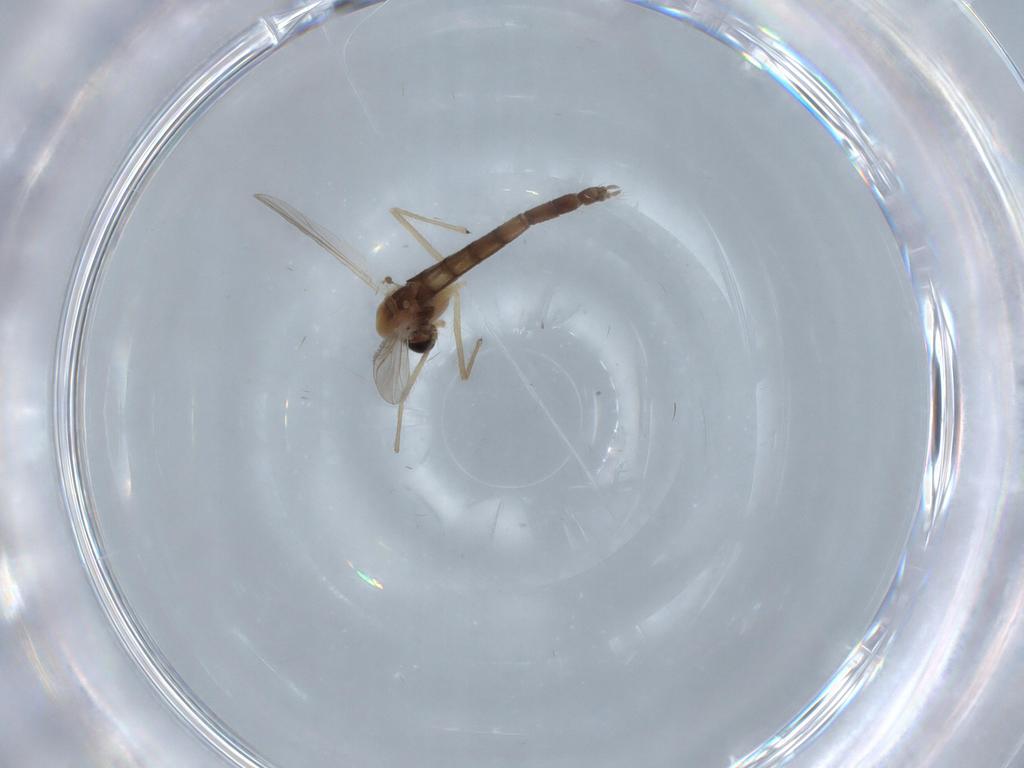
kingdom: Animalia
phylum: Arthropoda
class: Insecta
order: Diptera
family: Chironomidae
